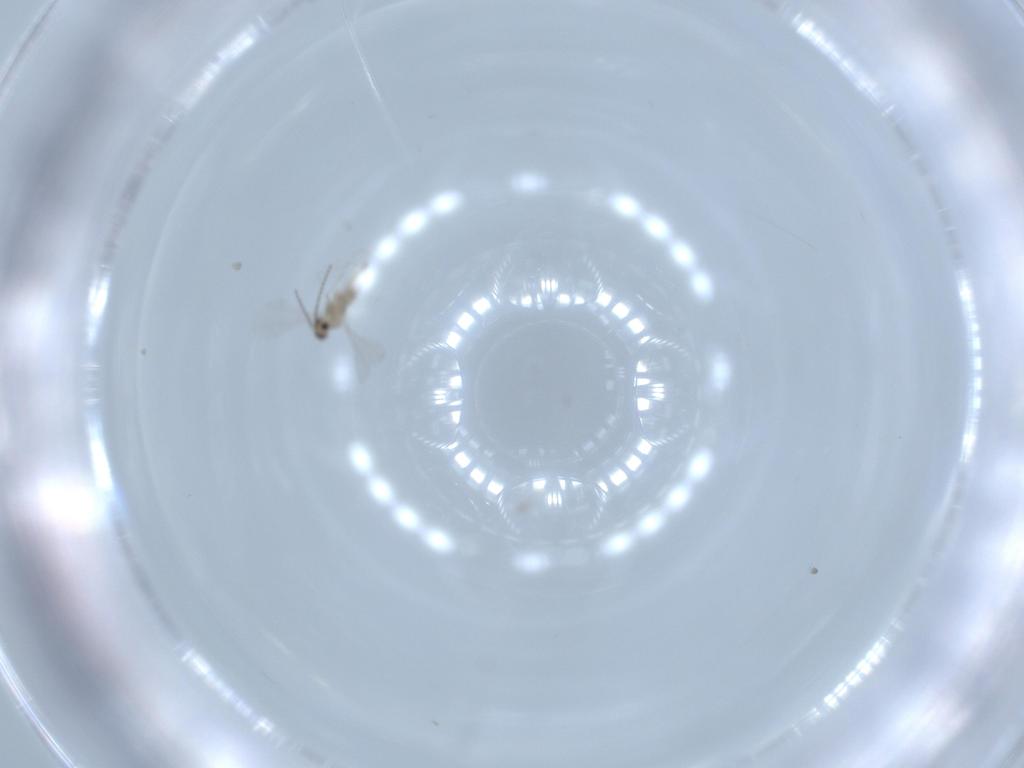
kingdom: Animalia
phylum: Arthropoda
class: Insecta
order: Diptera
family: Cecidomyiidae
